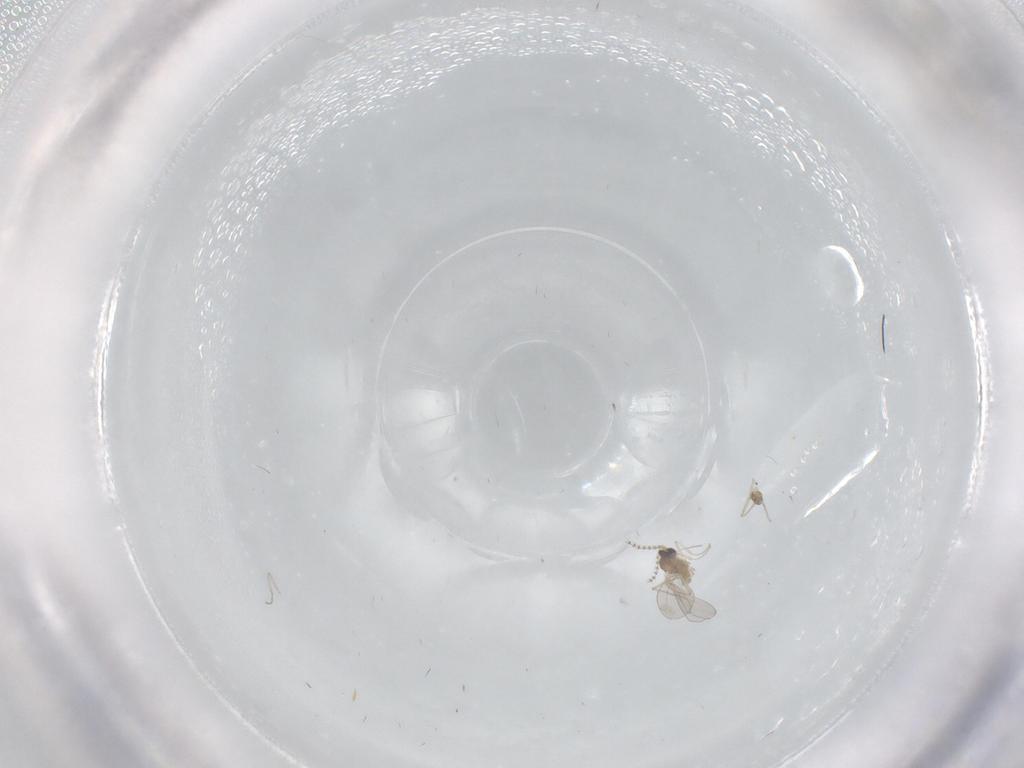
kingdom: Animalia
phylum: Arthropoda
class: Insecta
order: Diptera
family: Cecidomyiidae
